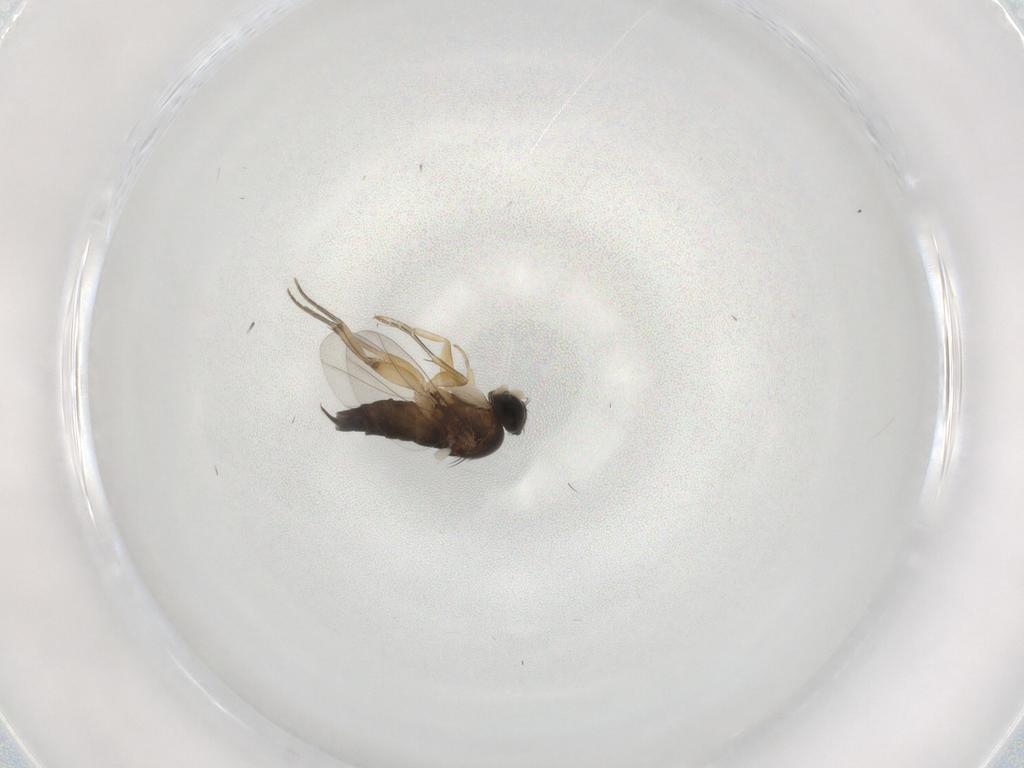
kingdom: Animalia
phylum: Arthropoda
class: Insecta
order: Diptera
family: Phoridae
